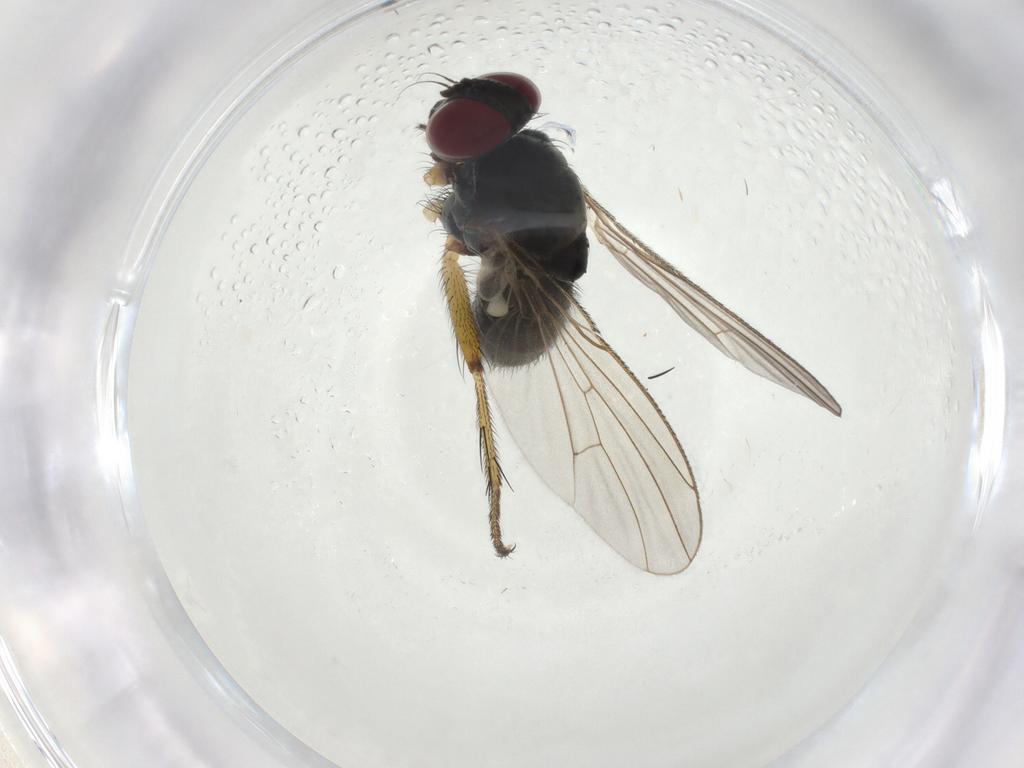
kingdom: Animalia
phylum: Arthropoda
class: Insecta
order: Diptera
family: Muscidae
